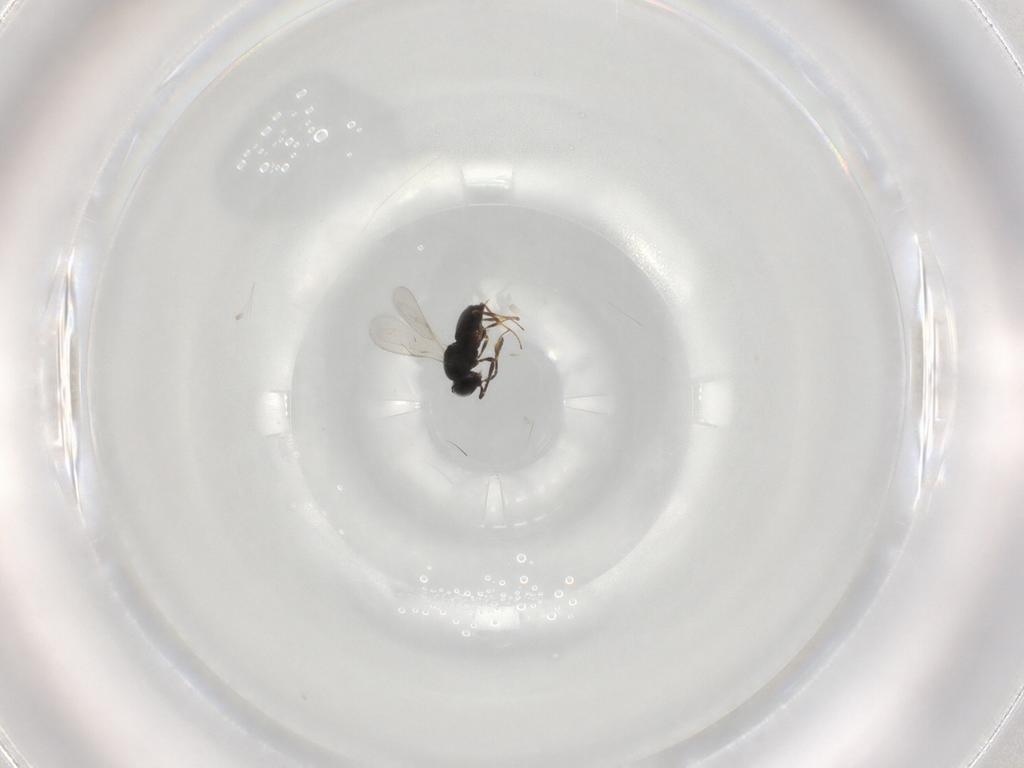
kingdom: Animalia
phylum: Arthropoda
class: Insecta
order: Hymenoptera
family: Scelionidae
